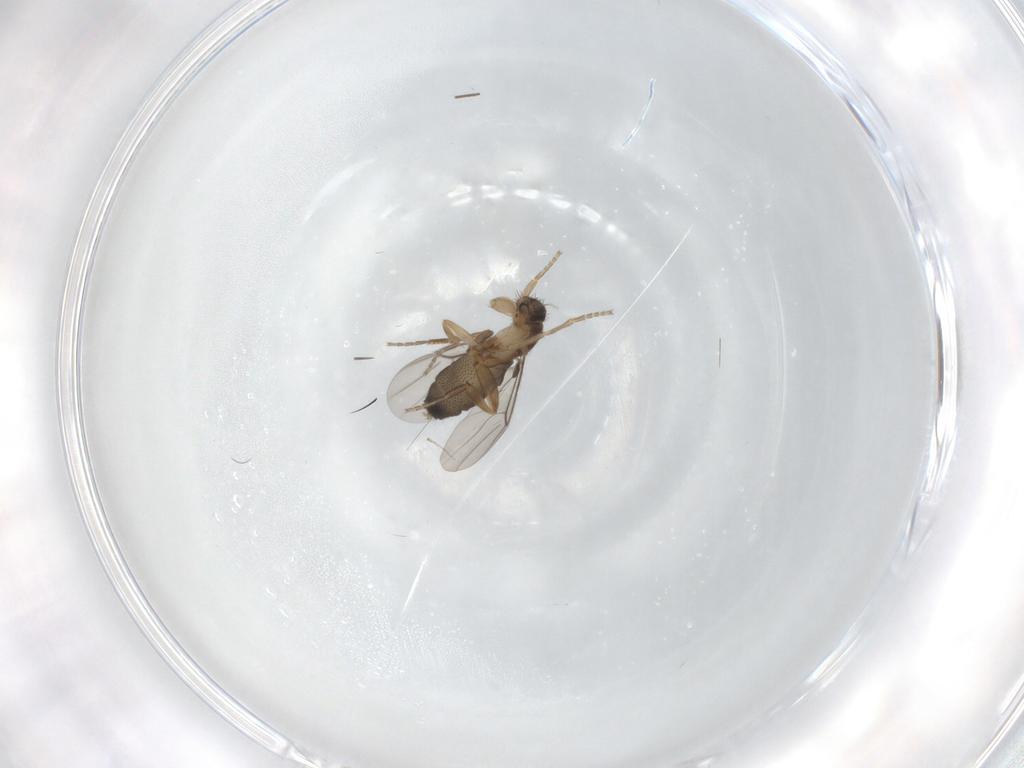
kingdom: Animalia
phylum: Arthropoda
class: Insecta
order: Diptera
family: Phoridae
